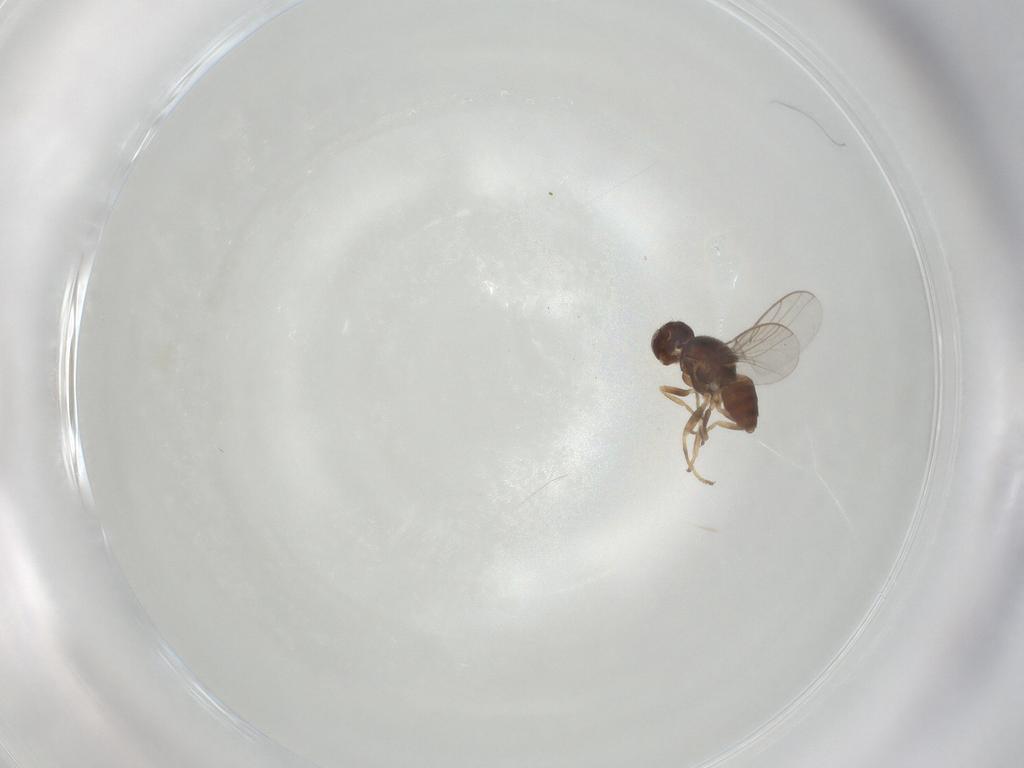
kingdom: Animalia
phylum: Arthropoda
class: Insecta
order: Diptera
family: Chloropidae
